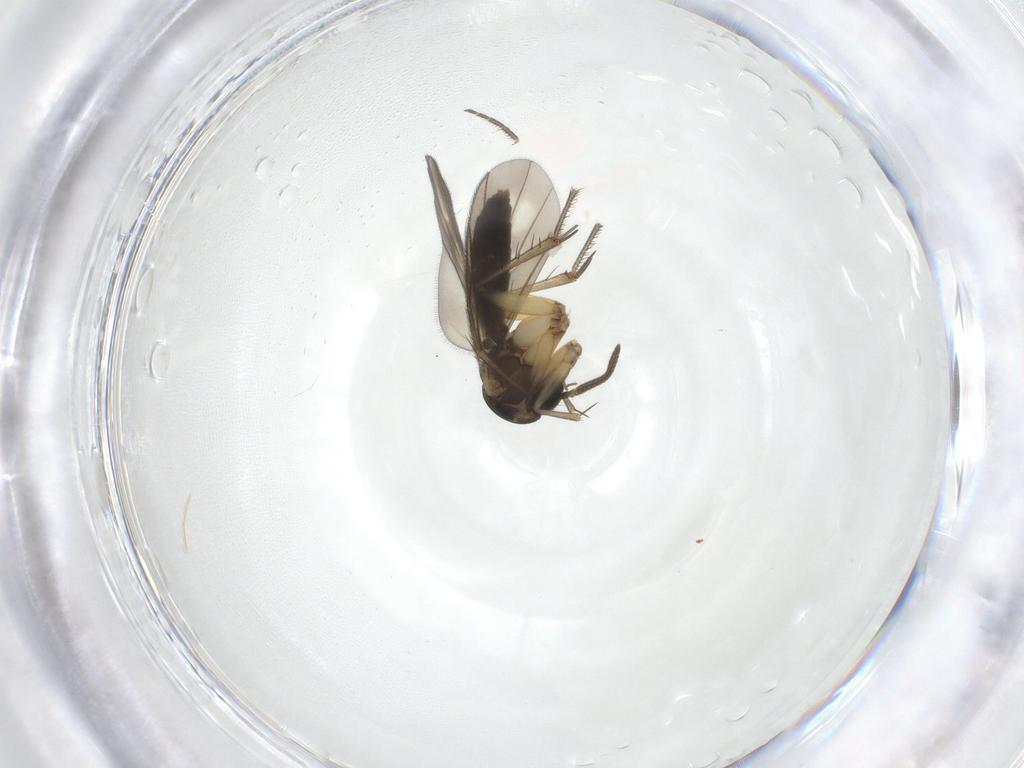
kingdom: Animalia
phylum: Arthropoda
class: Insecta
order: Diptera
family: Mycetophilidae
